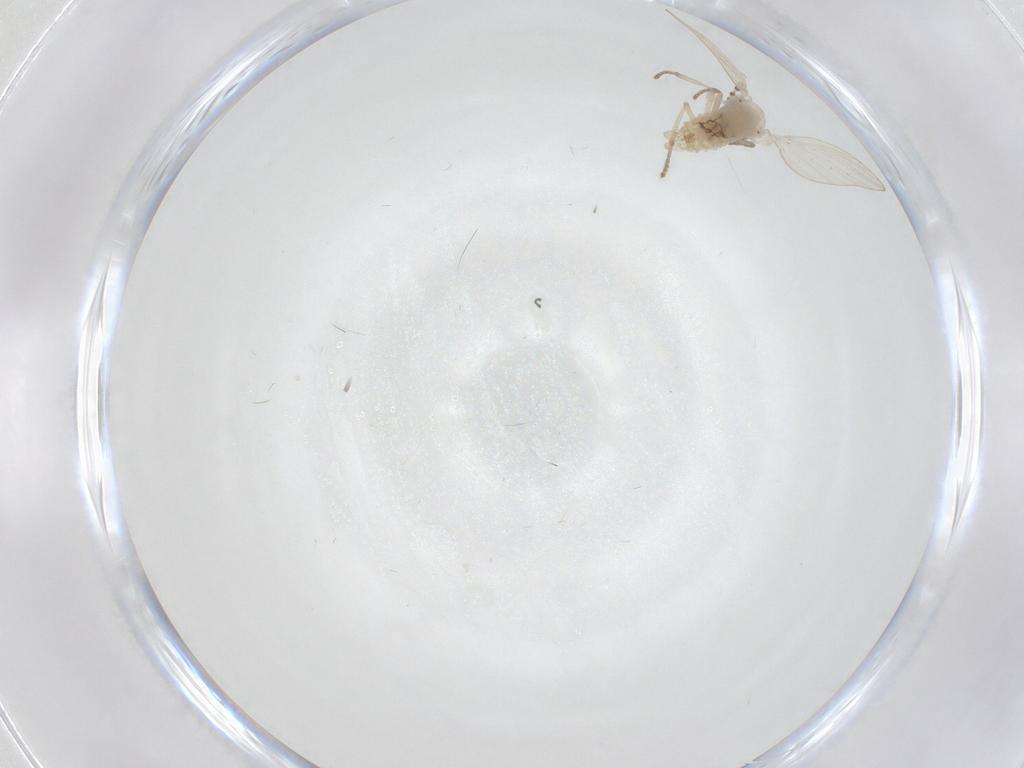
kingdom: Animalia
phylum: Arthropoda
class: Insecta
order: Diptera
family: Psychodidae
